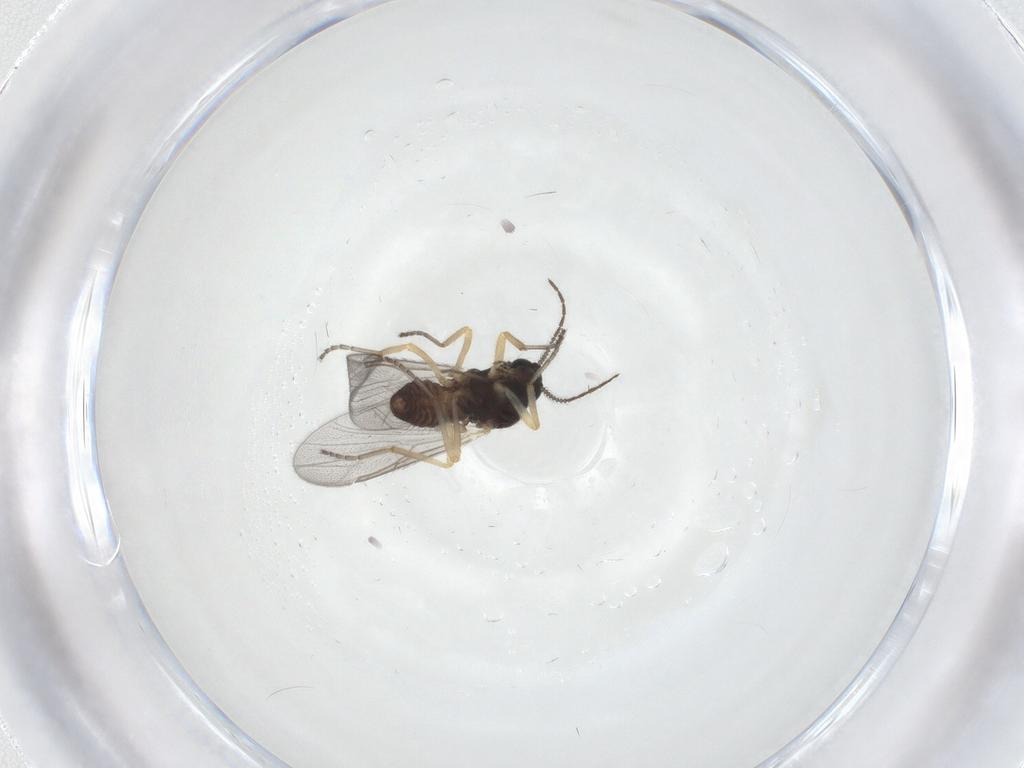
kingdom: Animalia
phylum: Arthropoda
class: Insecta
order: Diptera
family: Ceratopogonidae
